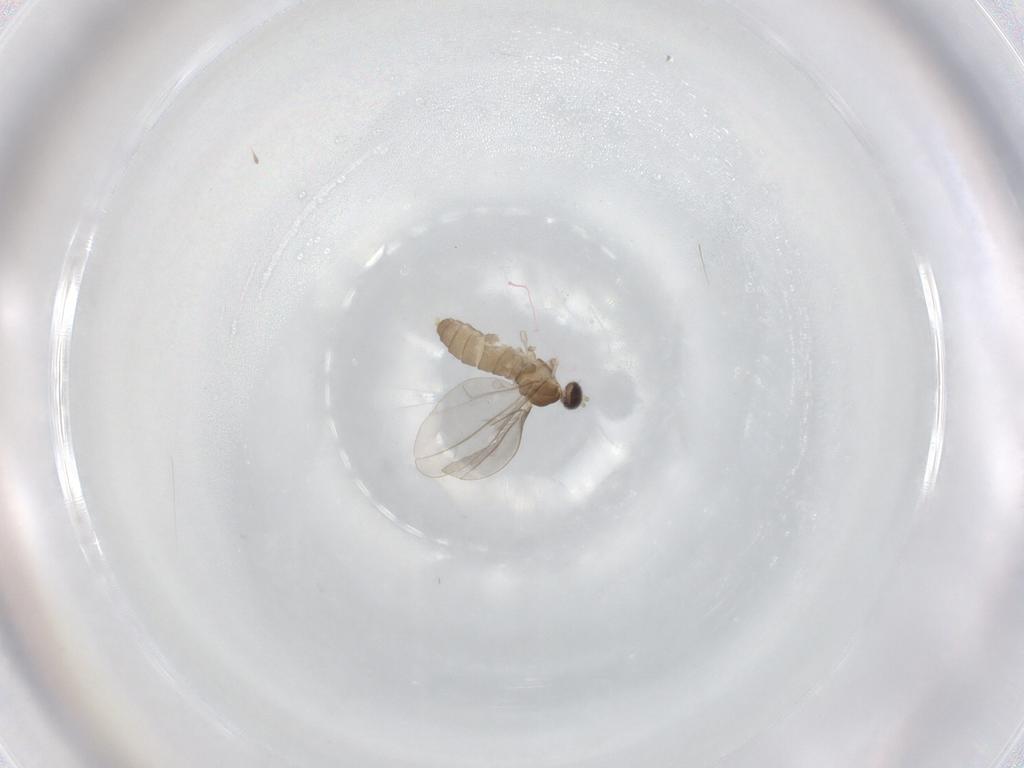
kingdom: Animalia
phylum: Arthropoda
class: Insecta
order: Diptera
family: Cecidomyiidae
